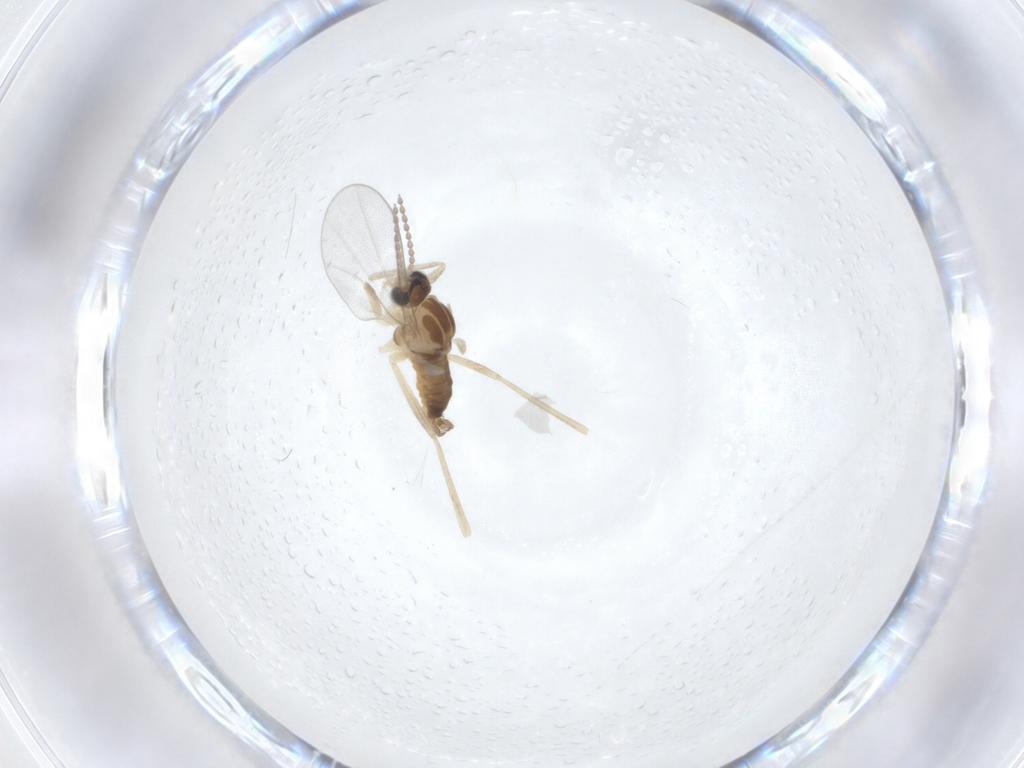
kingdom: Animalia
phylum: Arthropoda
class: Insecta
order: Diptera
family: Cecidomyiidae
